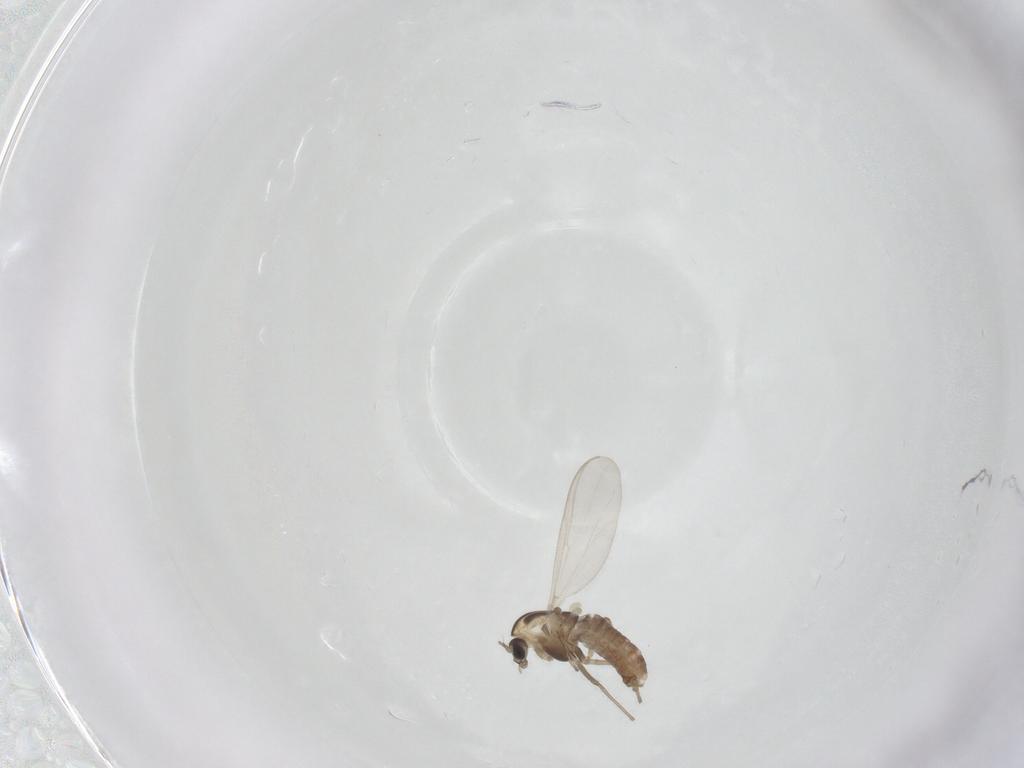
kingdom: Animalia
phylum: Arthropoda
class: Insecta
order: Diptera
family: Chironomidae
